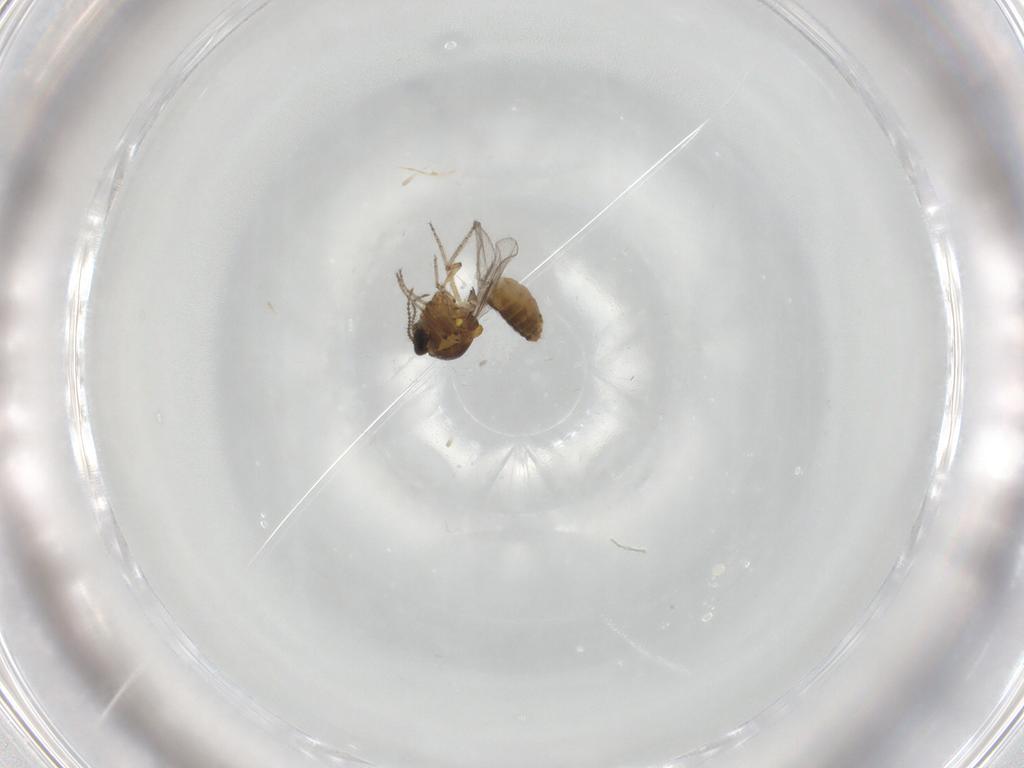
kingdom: Animalia
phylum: Arthropoda
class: Insecta
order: Diptera
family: Ceratopogonidae
